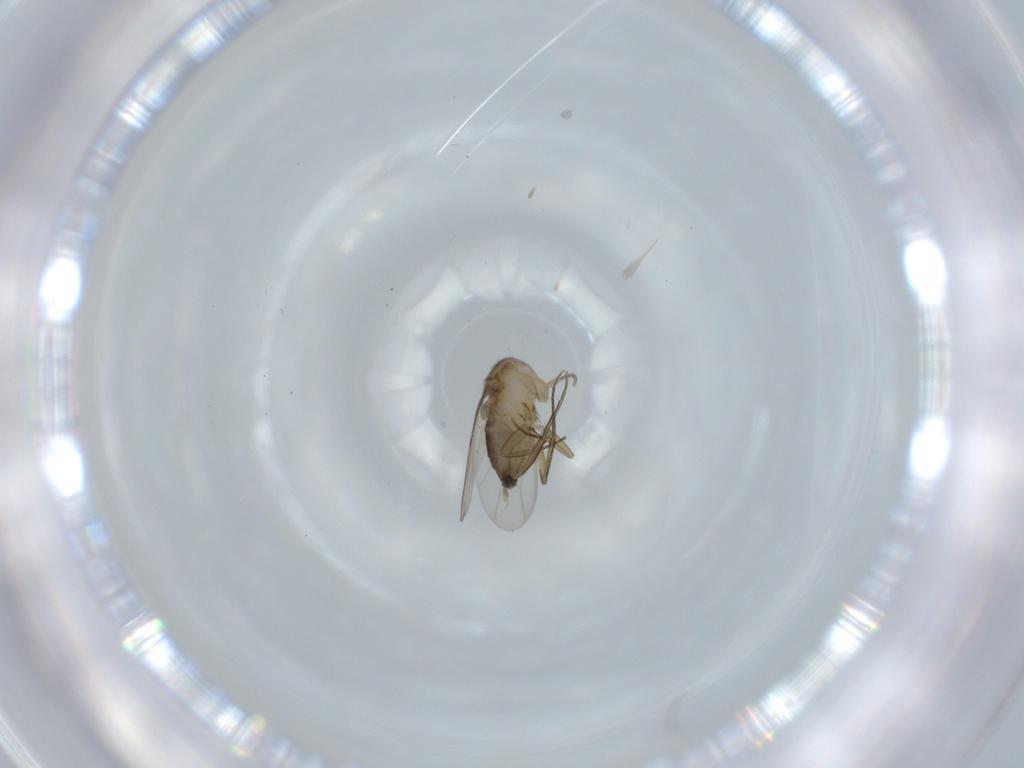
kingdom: Animalia
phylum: Arthropoda
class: Insecta
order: Diptera
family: Phoridae
